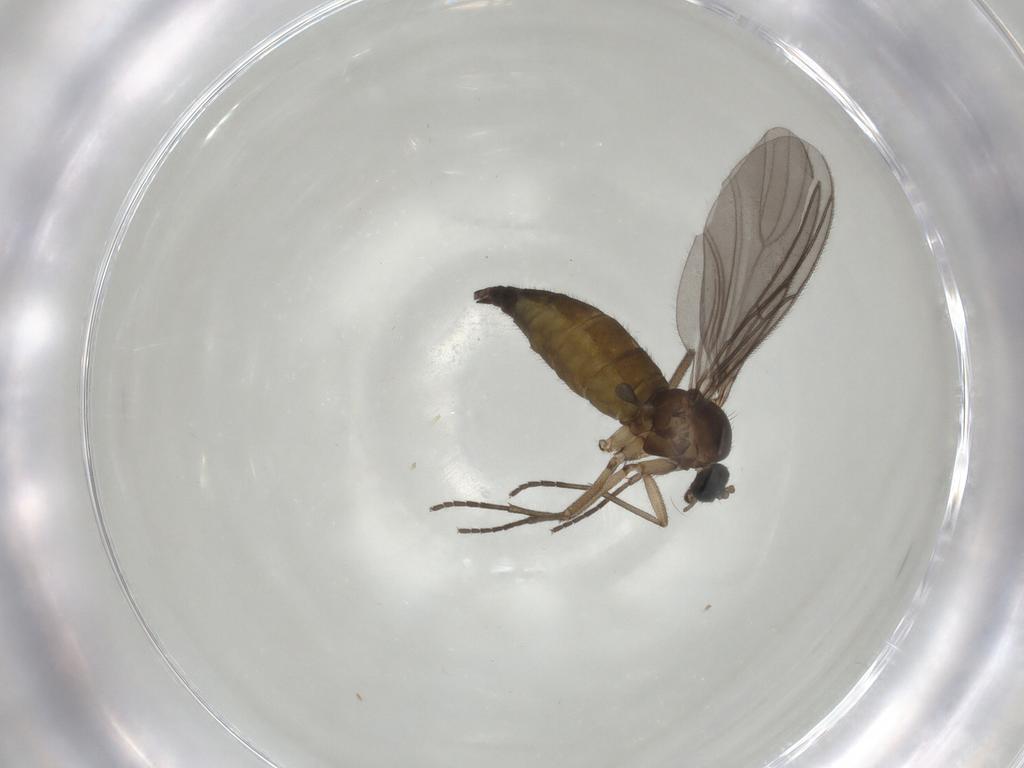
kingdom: Animalia
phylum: Arthropoda
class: Insecta
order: Diptera
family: Sciaridae
